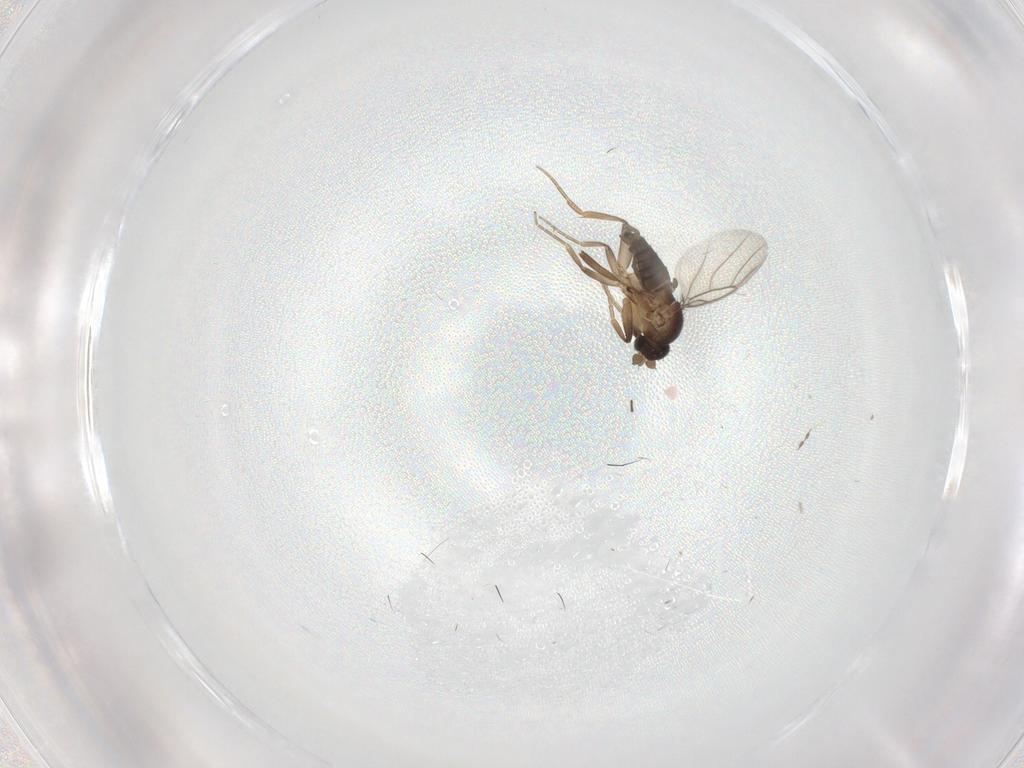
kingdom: Animalia
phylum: Arthropoda
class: Insecta
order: Diptera
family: Phoridae
